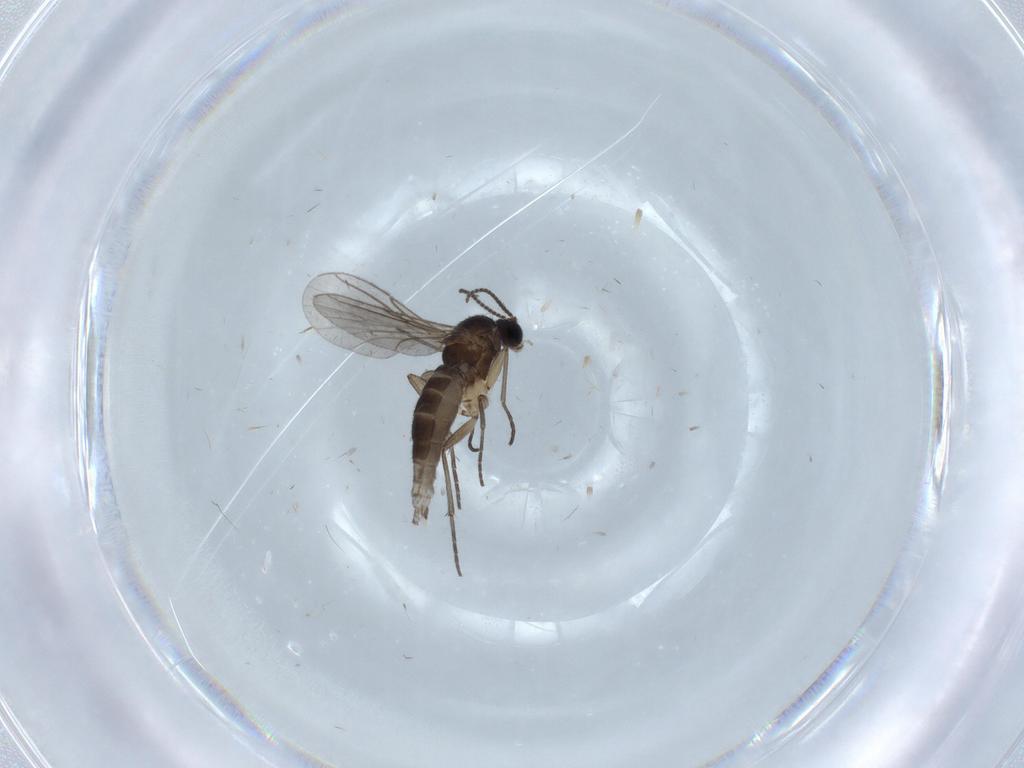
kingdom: Animalia
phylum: Arthropoda
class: Insecta
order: Diptera
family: Sciaridae
